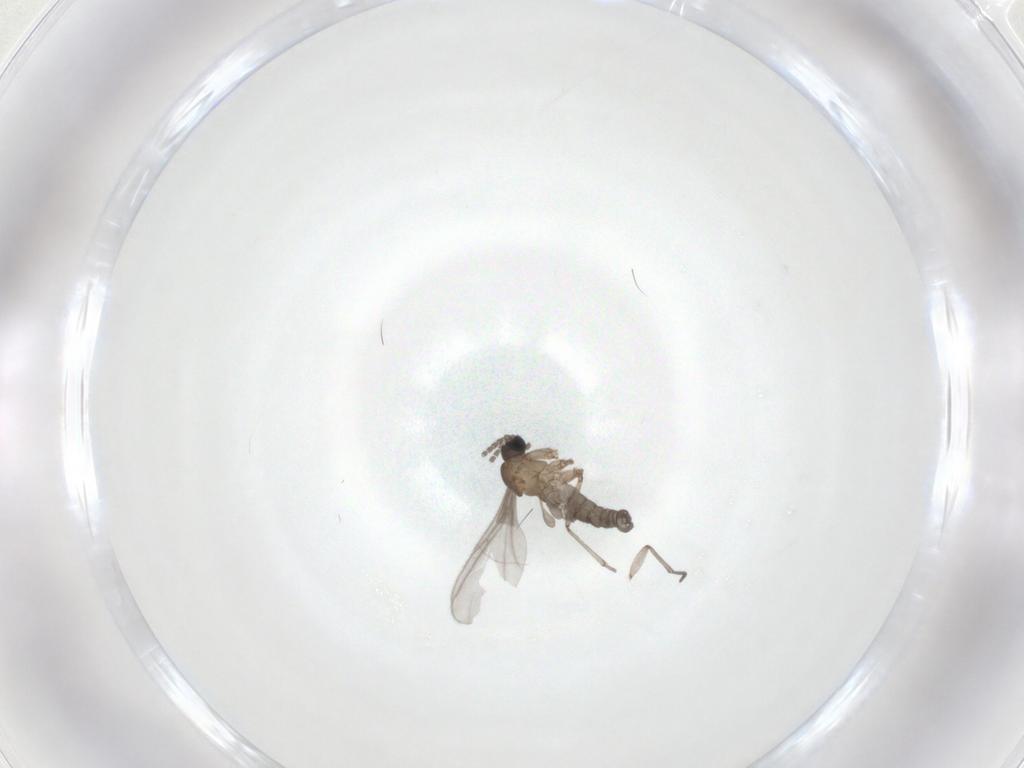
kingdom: Animalia
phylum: Arthropoda
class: Insecta
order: Diptera
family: Sciaridae
